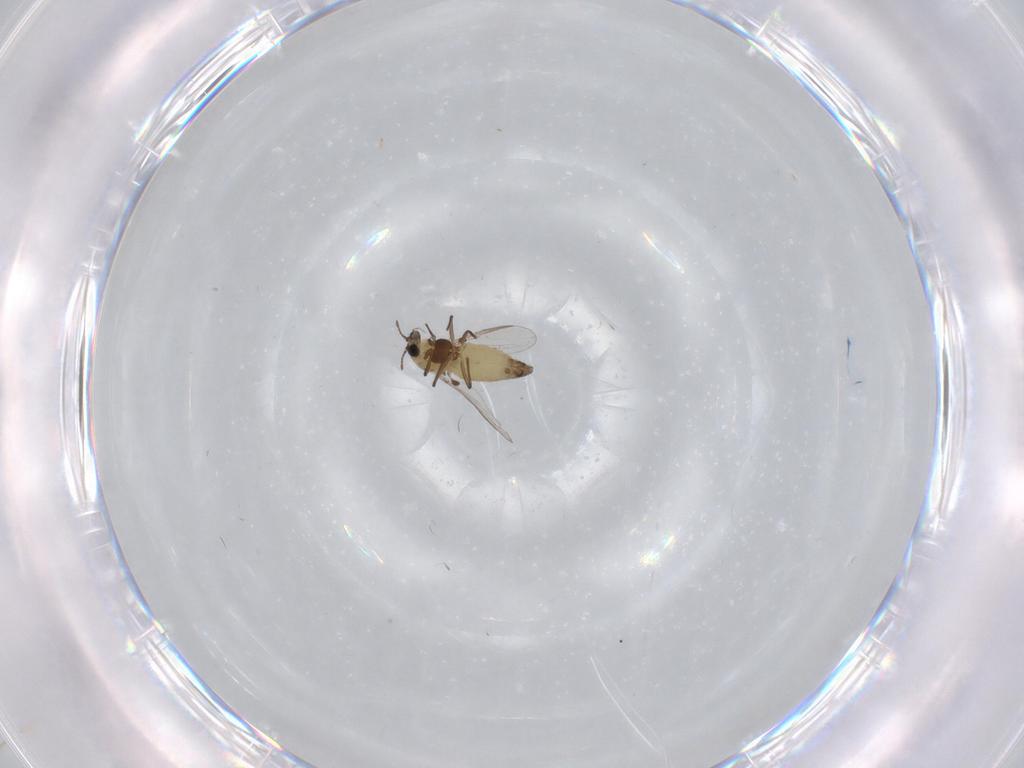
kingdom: Animalia
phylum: Arthropoda
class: Insecta
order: Diptera
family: Chironomidae
